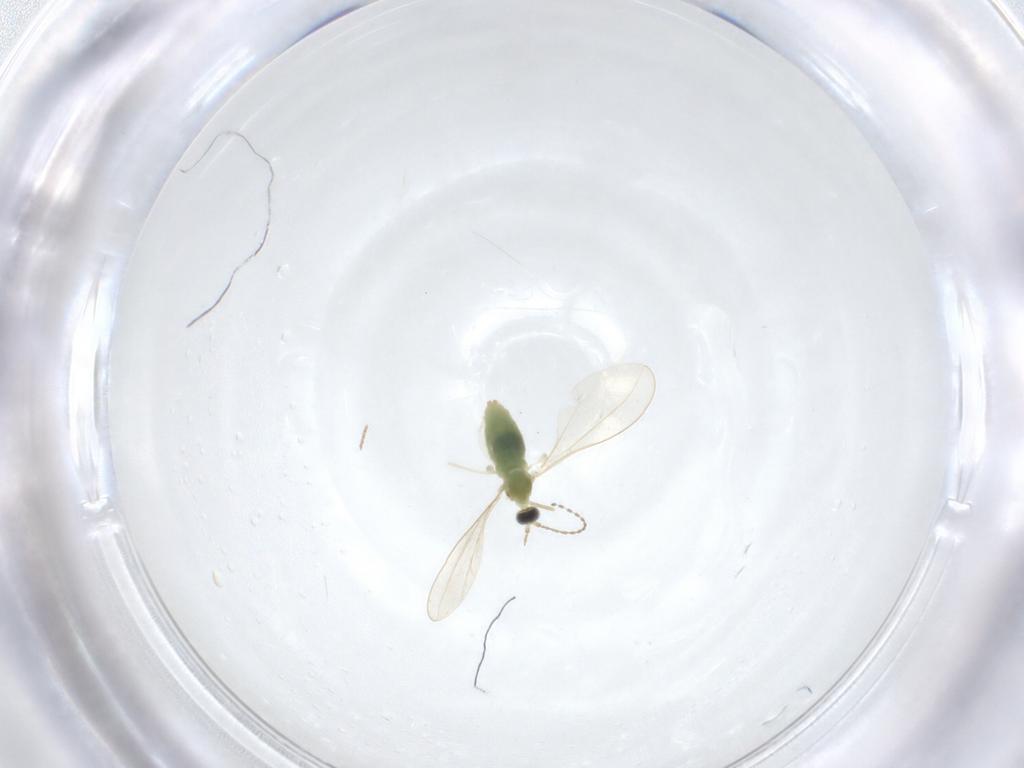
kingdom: Animalia
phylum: Arthropoda
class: Insecta
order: Diptera
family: Cecidomyiidae
